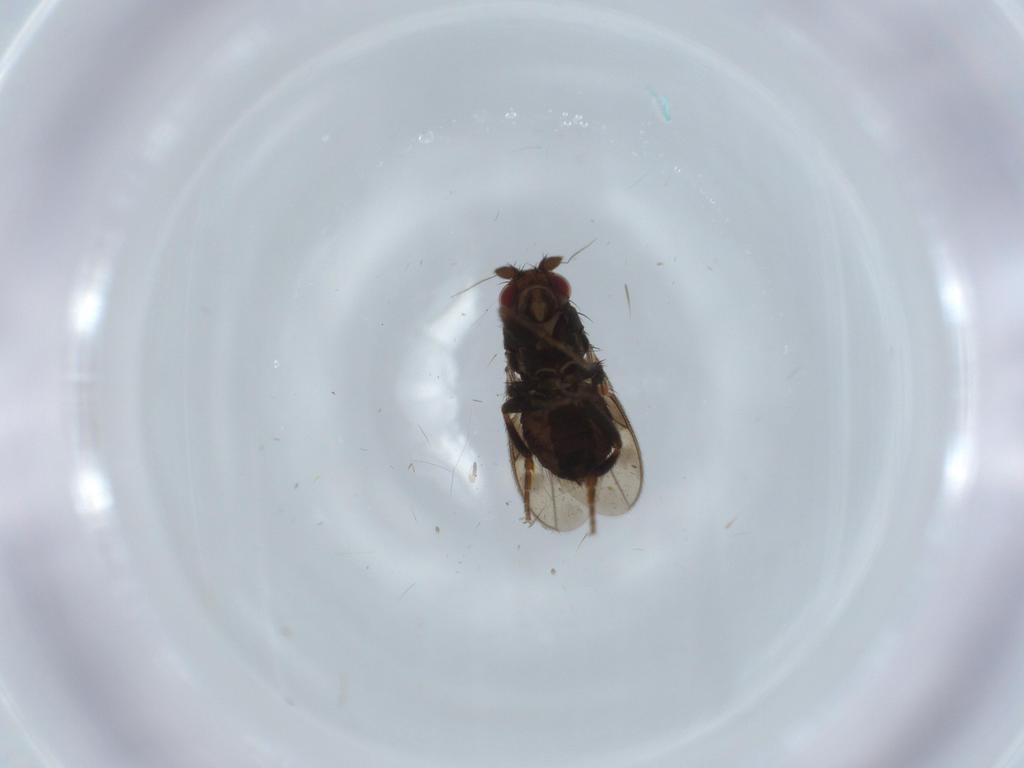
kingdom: Animalia
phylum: Arthropoda
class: Insecta
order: Diptera
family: Sphaeroceridae
